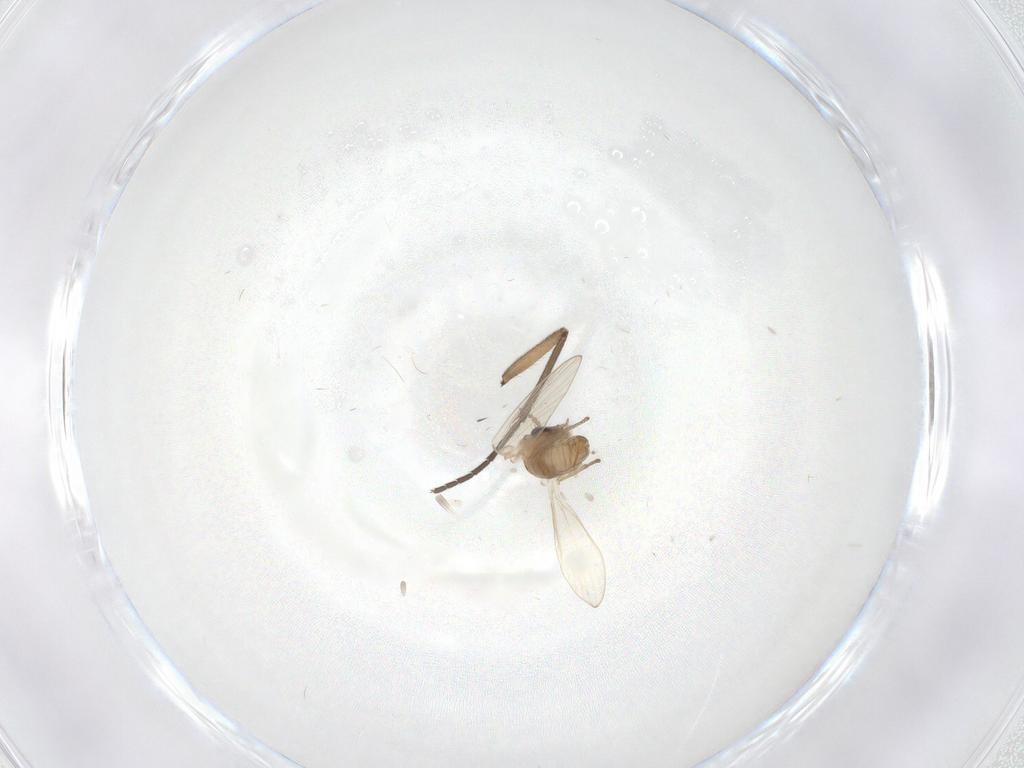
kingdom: Animalia
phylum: Arthropoda
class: Insecta
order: Diptera
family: Psychodidae
